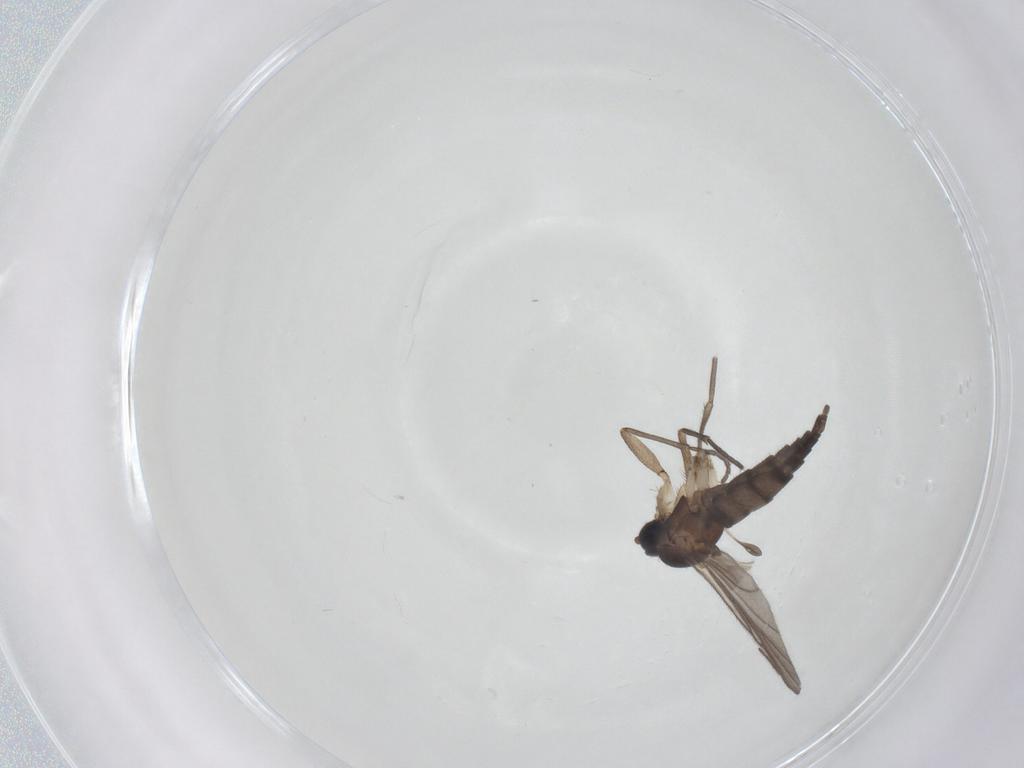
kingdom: Animalia
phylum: Arthropoda
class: Insecta
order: Diptera
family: Sciaridae
